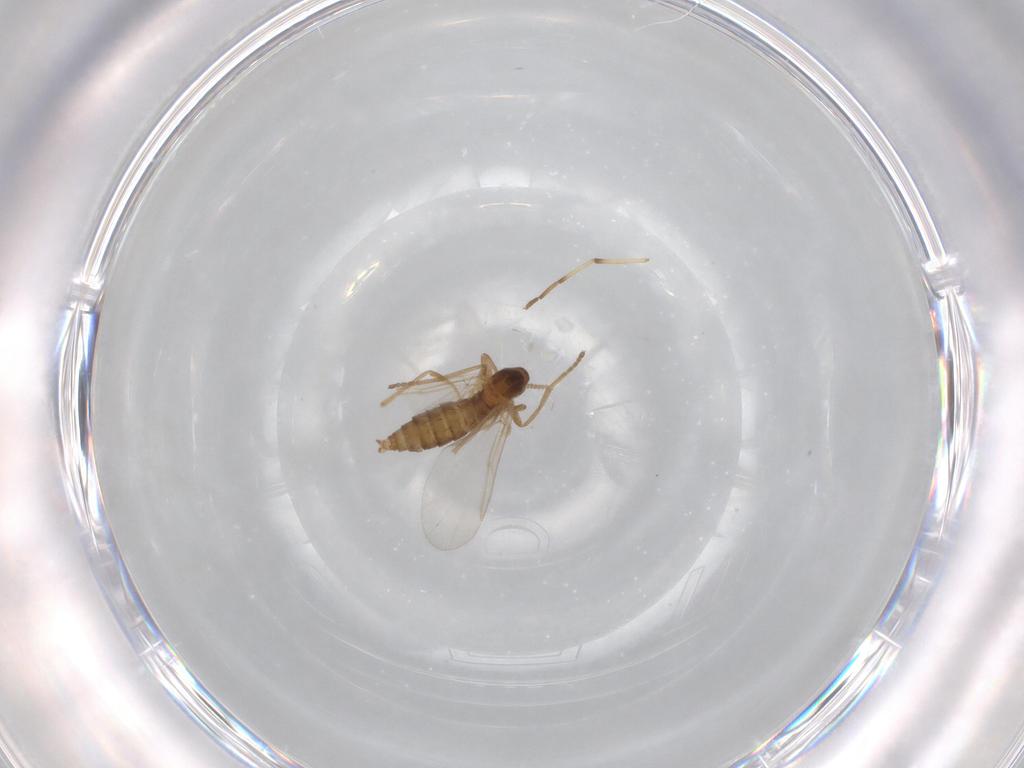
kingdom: Animalia
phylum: Arthropoda
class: Insecta
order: Diptera
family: Cecidomyiidae
